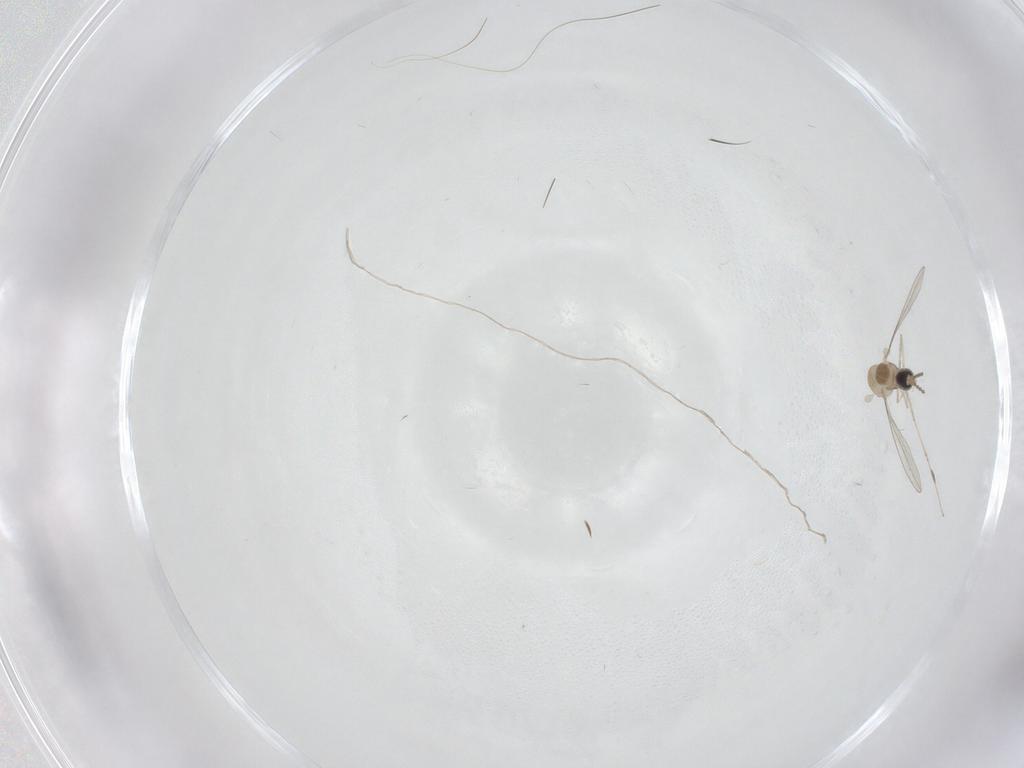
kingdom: Animalia
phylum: Arthropoda
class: Insecta
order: Diptera
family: Cecidomyiidae
